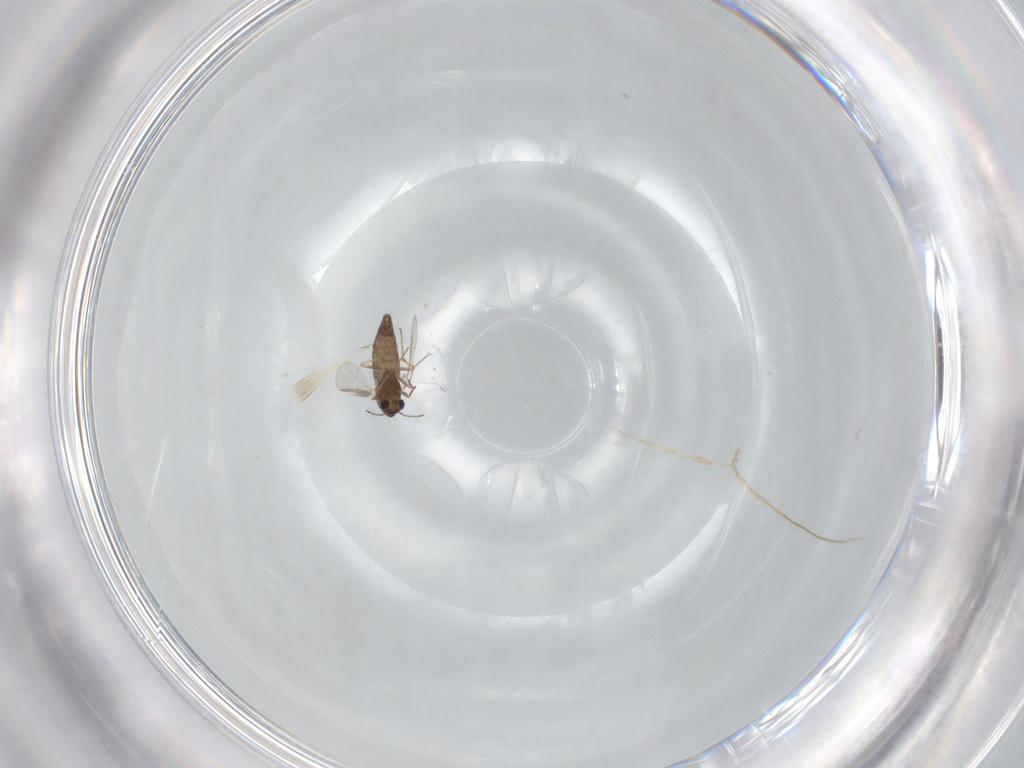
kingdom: Animalia
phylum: Arthropoda
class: Insecta
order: Diptera
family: Chironomidae
